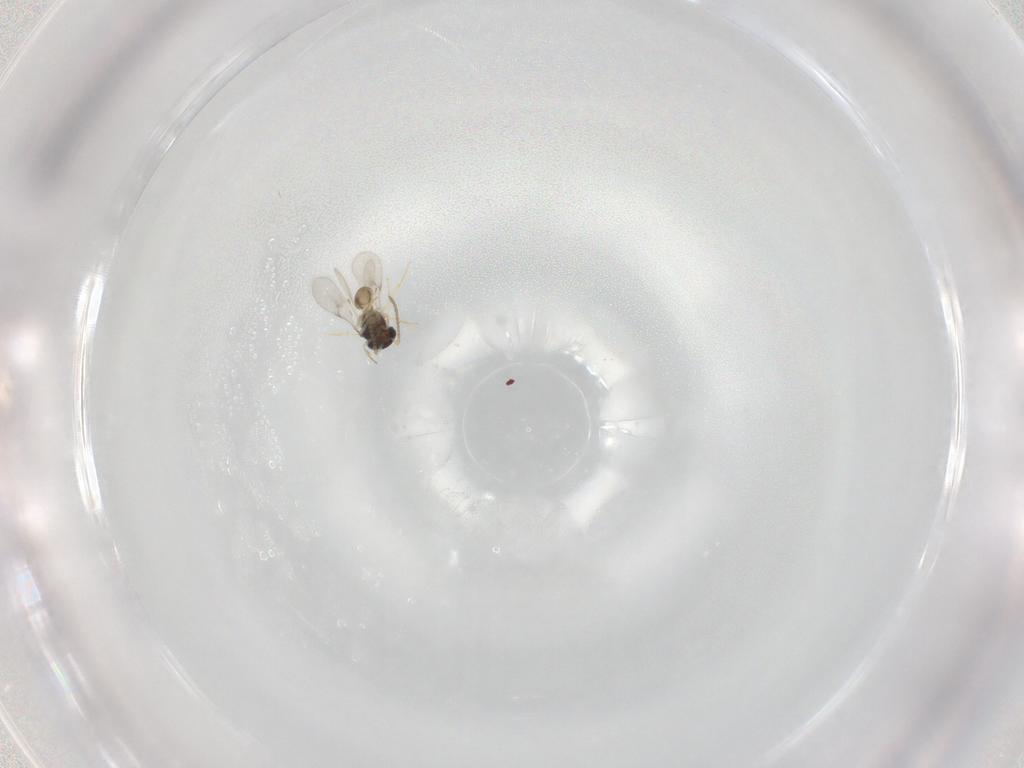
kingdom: Animalia
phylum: Arthropoda
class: Insecta
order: Hymenoptera
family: Scelionidae
